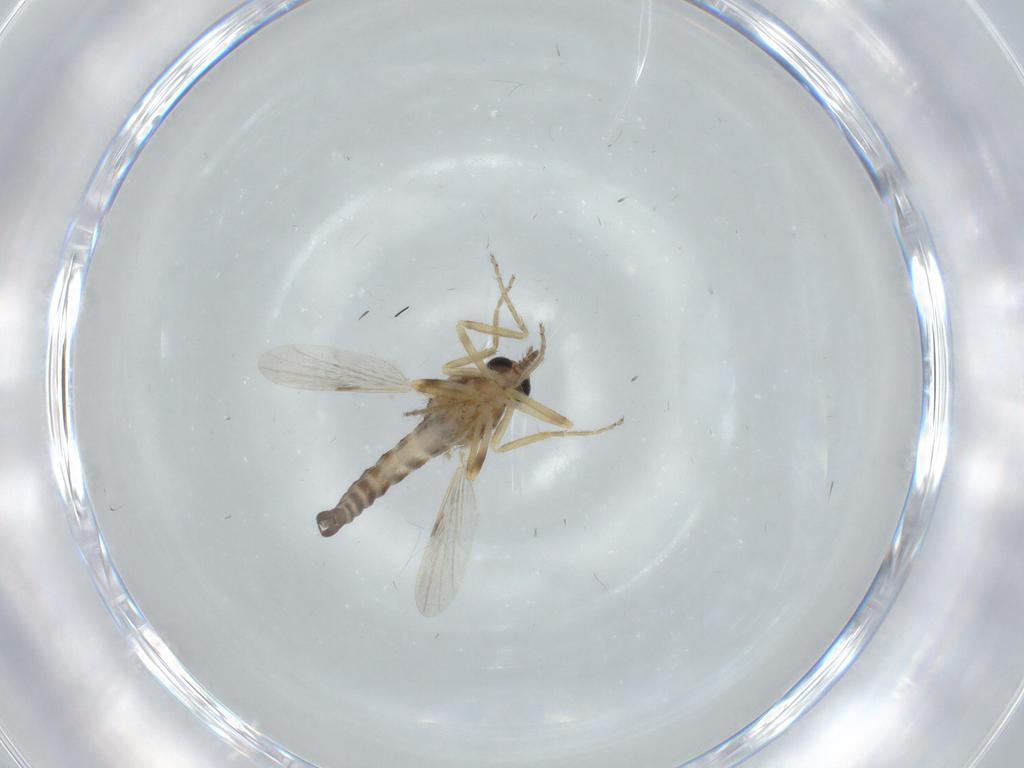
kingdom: Animalia
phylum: Arthropoda
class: Insecta
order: Diptera
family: Ceratopogonidae
